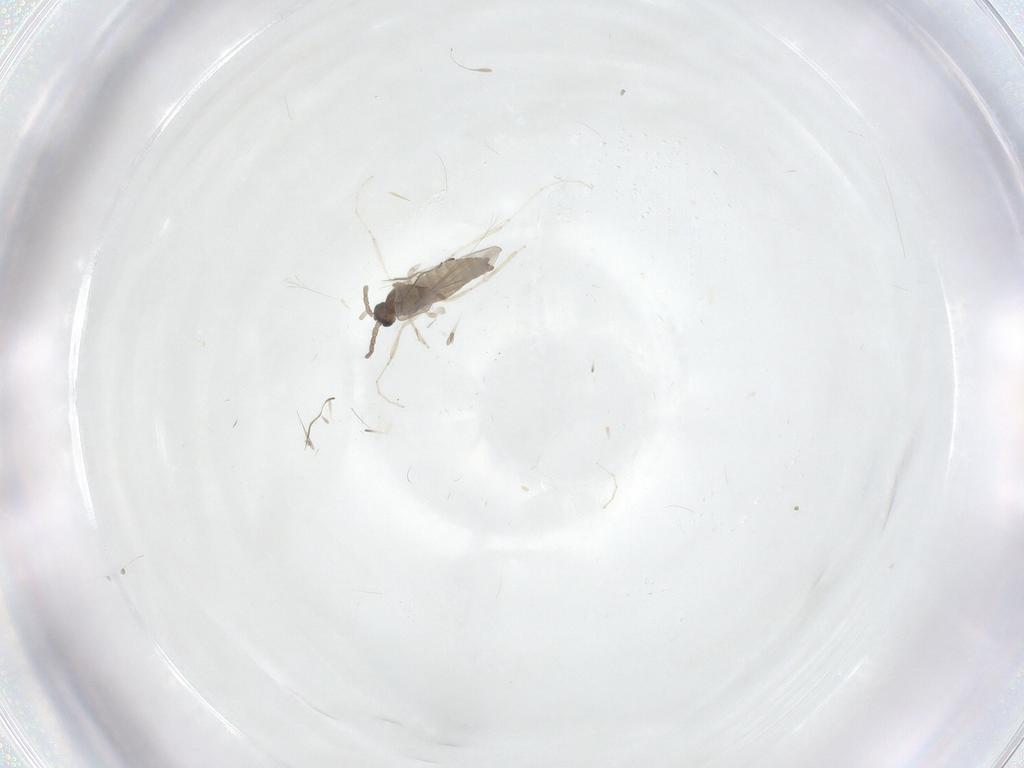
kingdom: Animalia
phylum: Arthropoda
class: Insecta
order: Diptera
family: Cecidomyiidae
